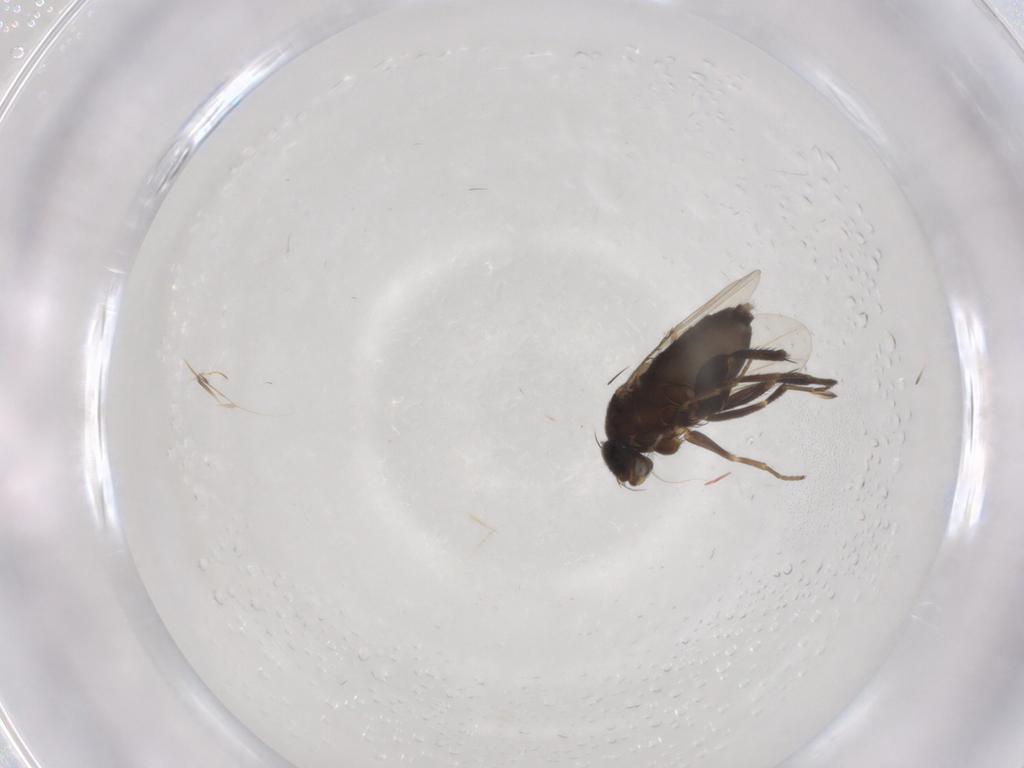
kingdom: Animalia
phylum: Arthropoda
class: Insecta
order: Diptera
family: Phoridae
